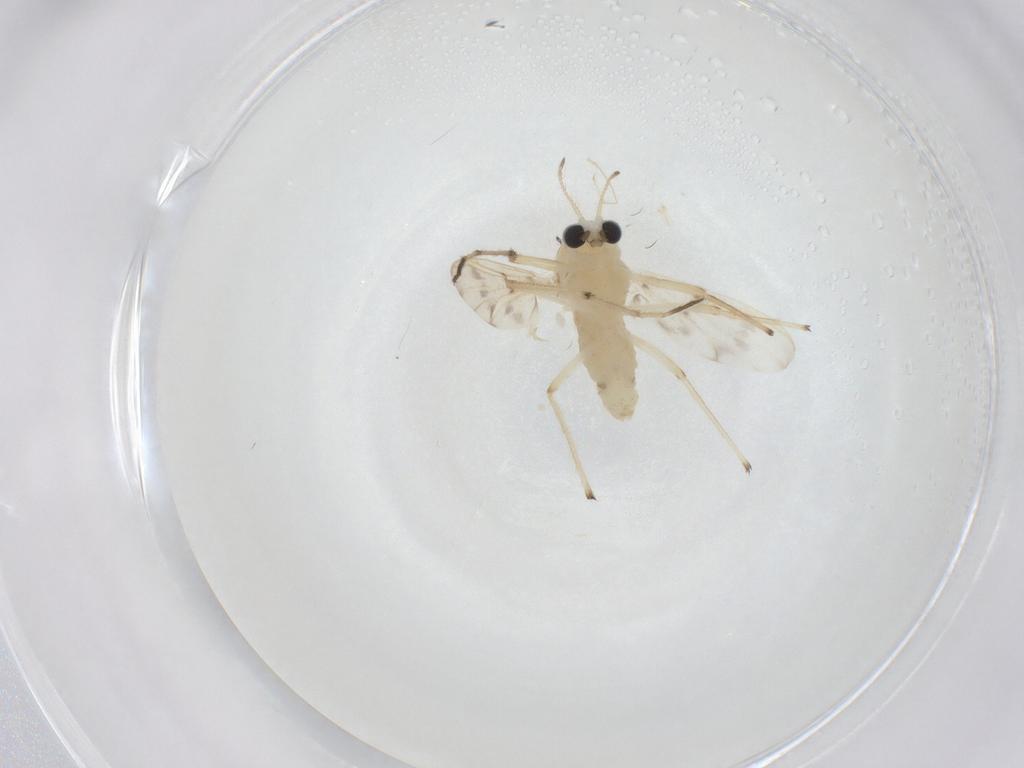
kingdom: Animalia
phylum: Arthropoda
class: Insecta
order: Diptera
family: Chironomidae
